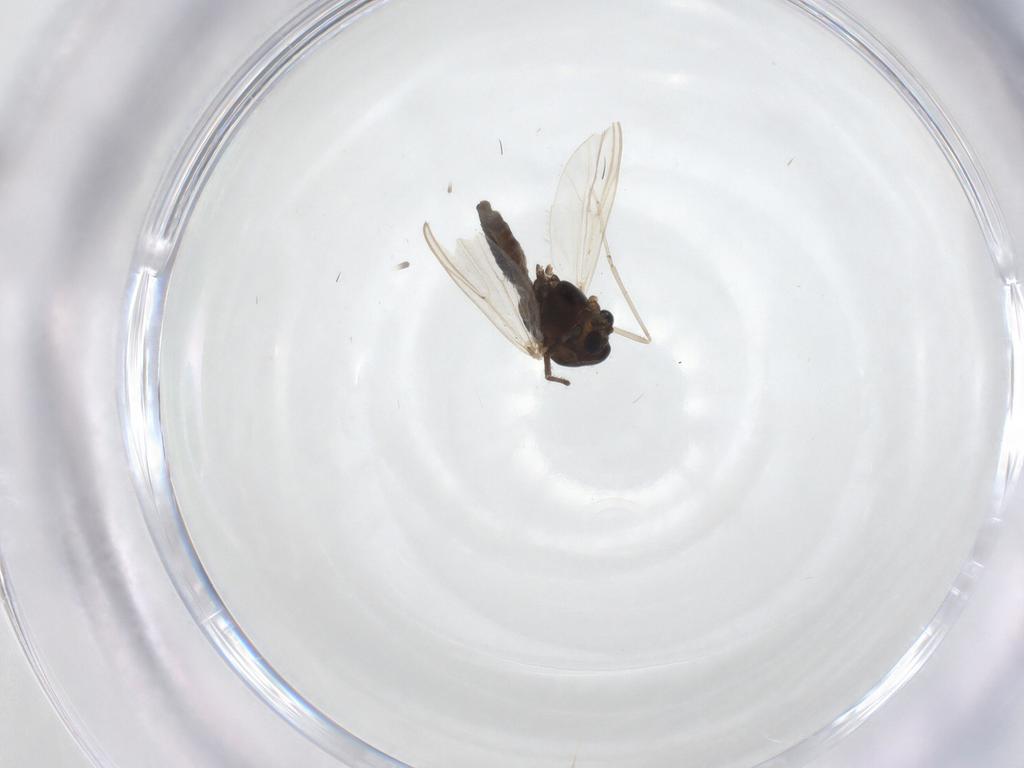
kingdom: Animalia
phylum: Arthropoda
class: Insecta
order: Diptera
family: Chironomidae
